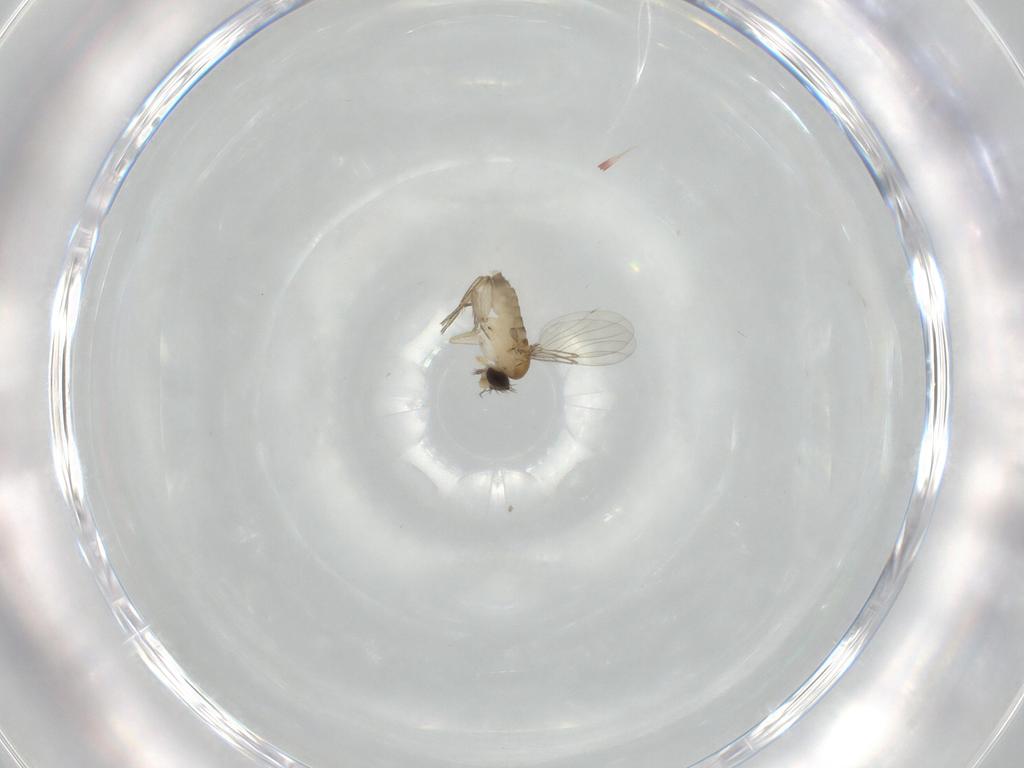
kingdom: Animalia
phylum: Arthropoda
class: Insecta
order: Diptera
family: Phoridae
